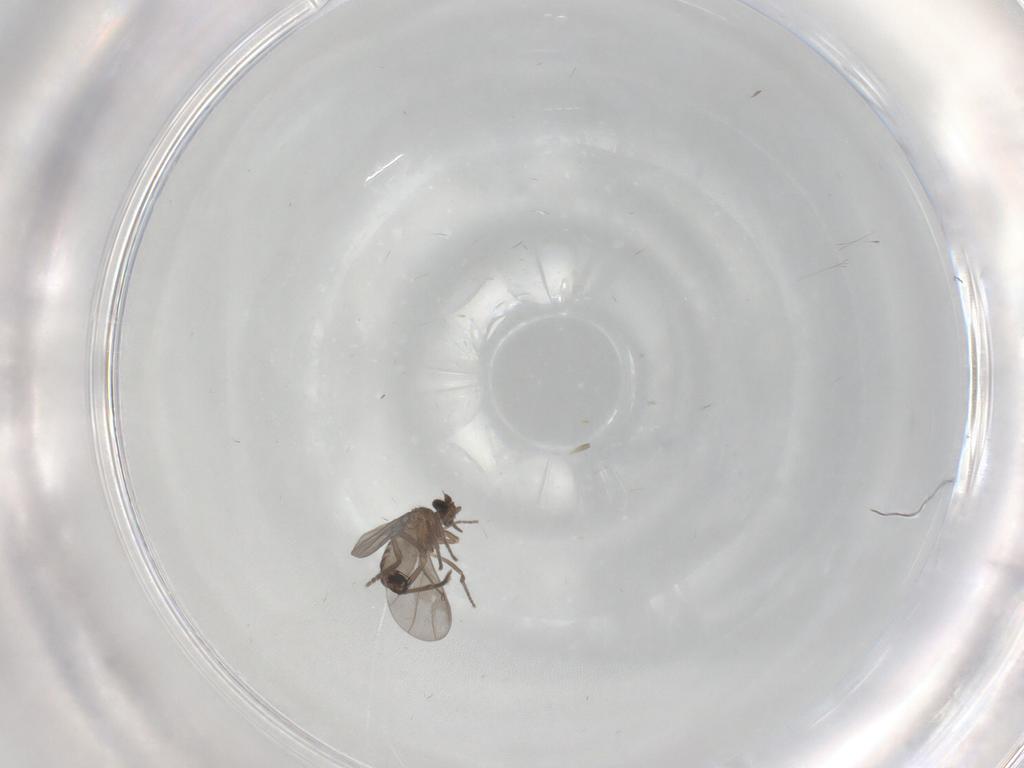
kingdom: Animalia
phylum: Arthropoda
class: Insecta
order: Diptera
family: Phoridae
